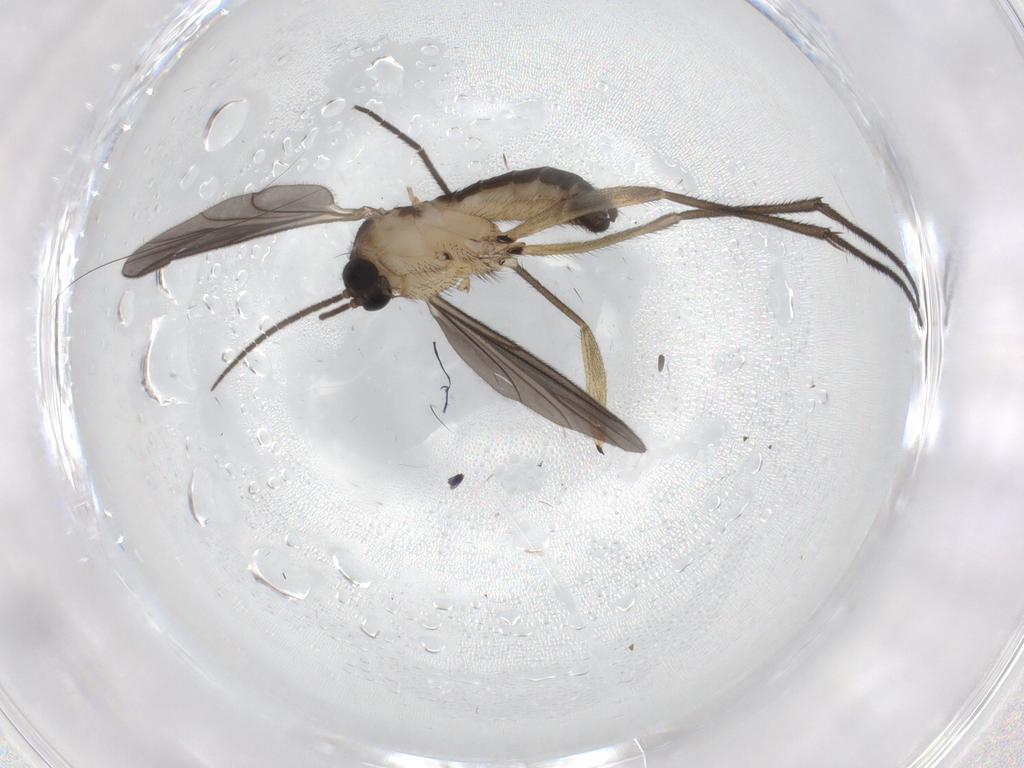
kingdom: Animalia
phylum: Arthropoda
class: Insecta
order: Diptera
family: Sciaridae
